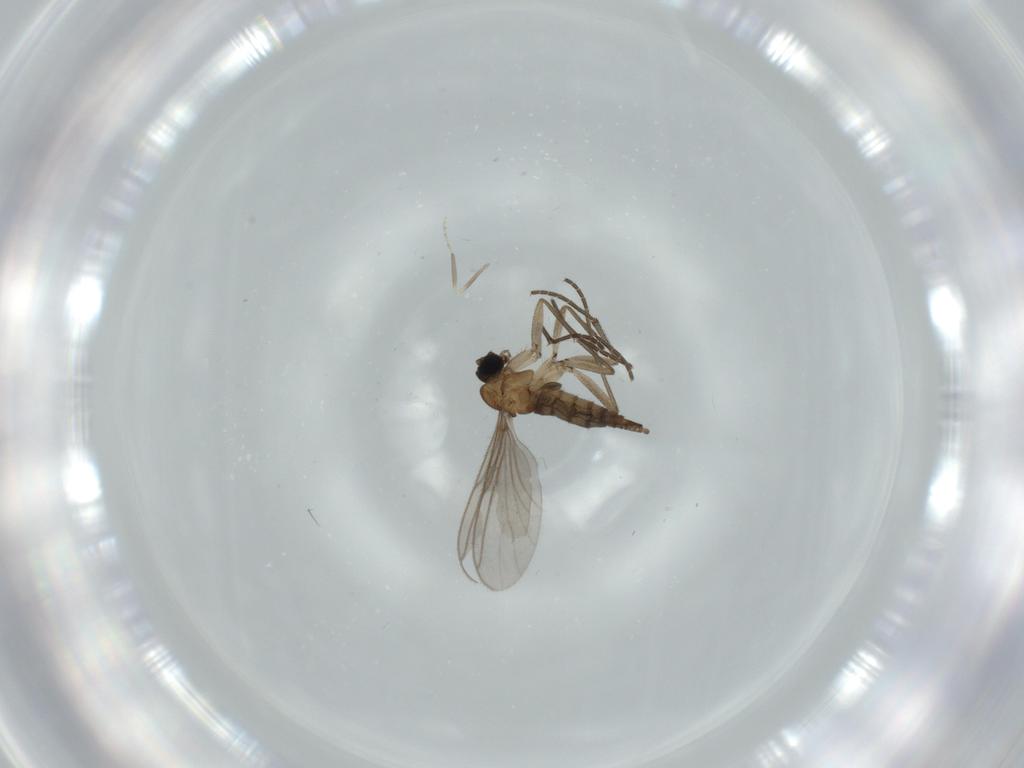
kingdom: Animalia
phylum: Arthropoda
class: Insecta
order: Diptera
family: Sciaridae
